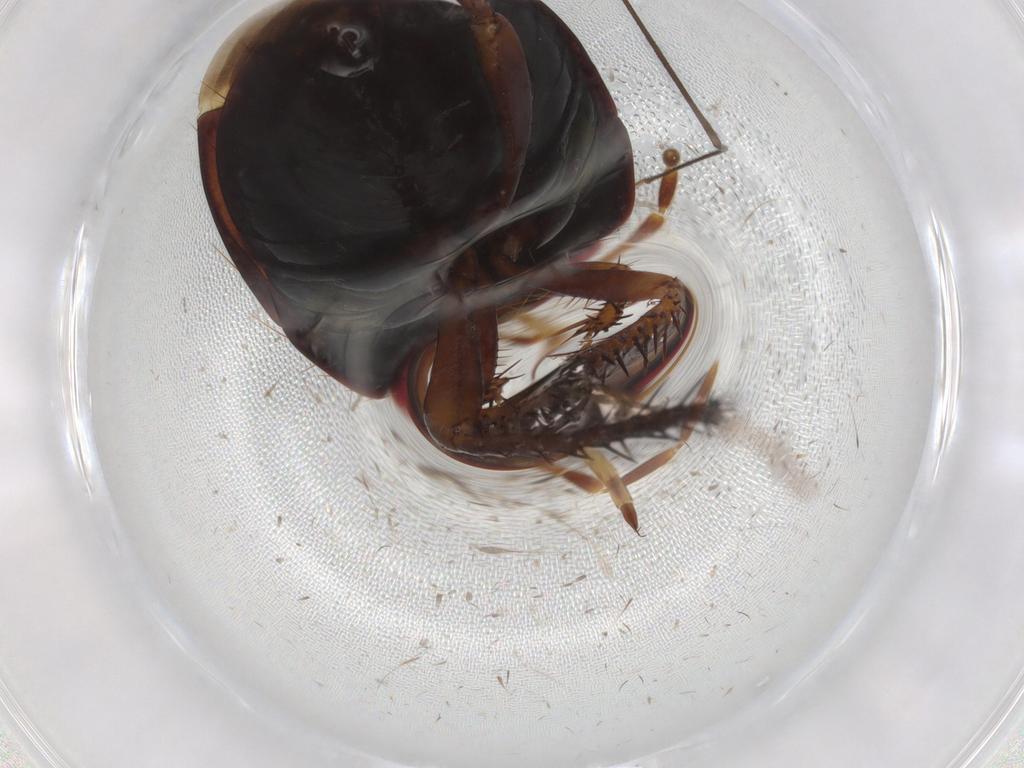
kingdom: Animalia
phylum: Arthropoda
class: Insecta
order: Hemiptera
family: Cydnidae
